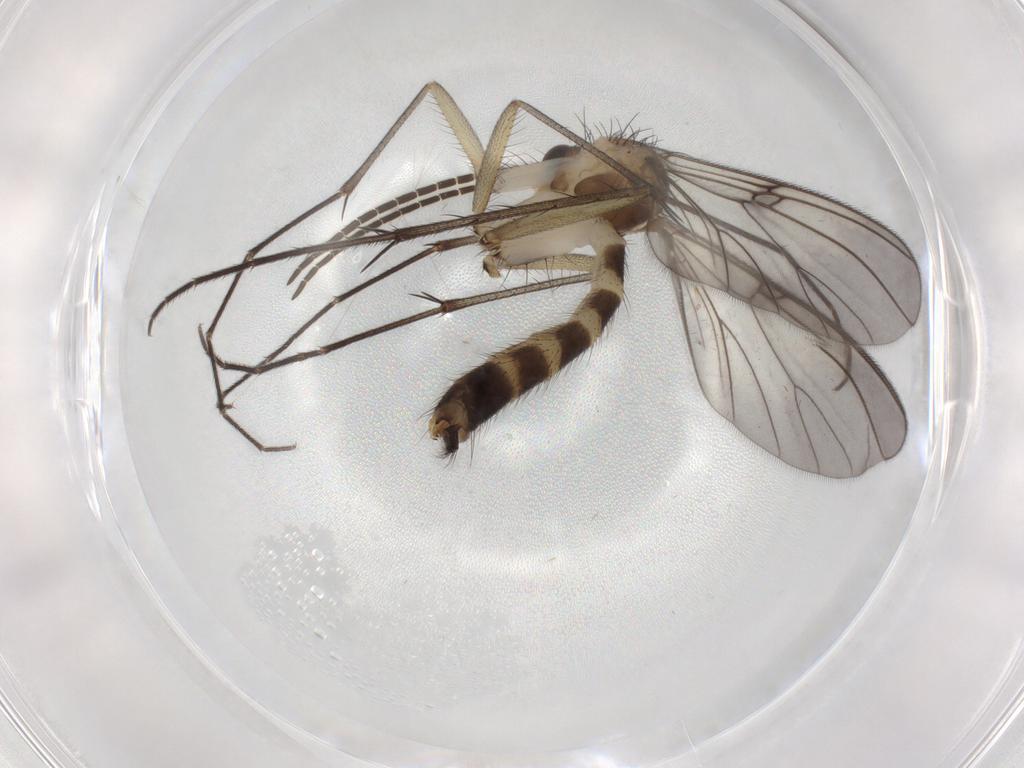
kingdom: Animalia
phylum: Arthropoda
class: Insecta
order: Diptera
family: Mycetophilidae
